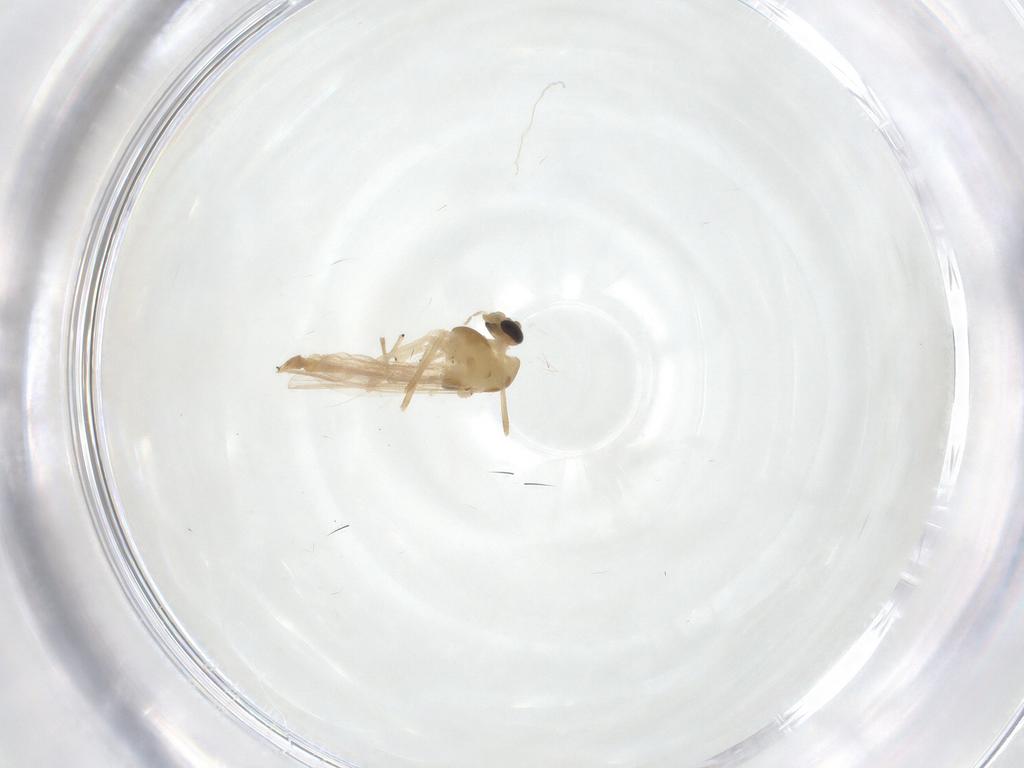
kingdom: Animalia
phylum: Arthropoda
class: Insecta
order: Diptera
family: Chironomidae
